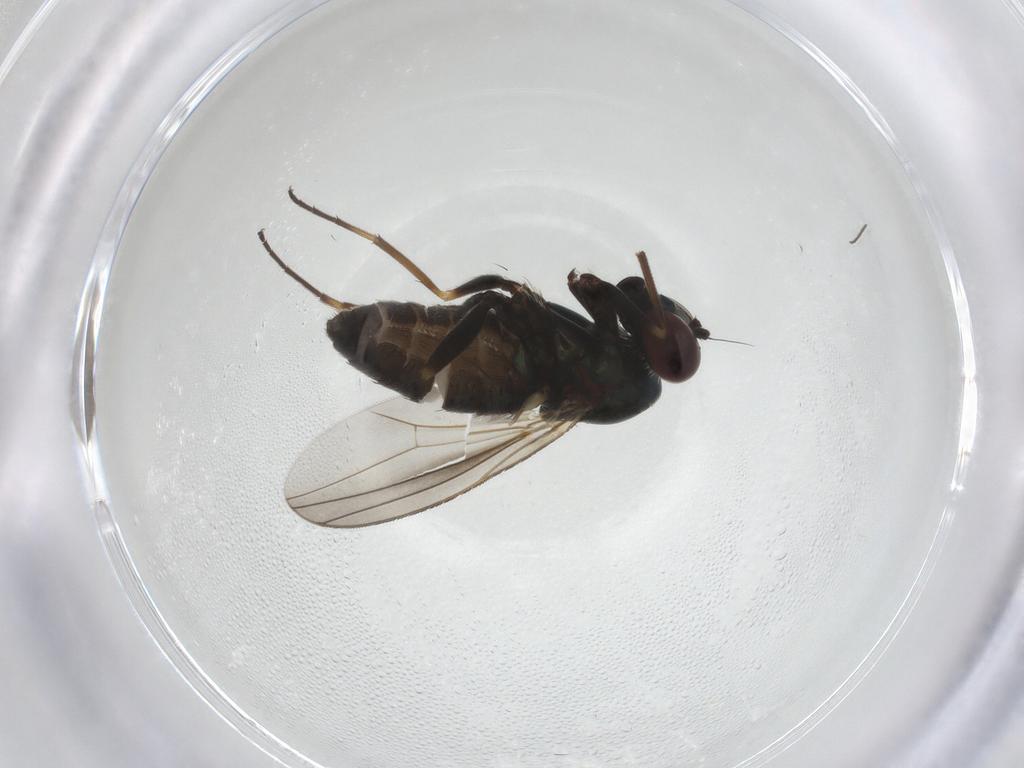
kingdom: Animalia
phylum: Arthropoda
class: Insecta
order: Diptera
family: Dolichopodidae
